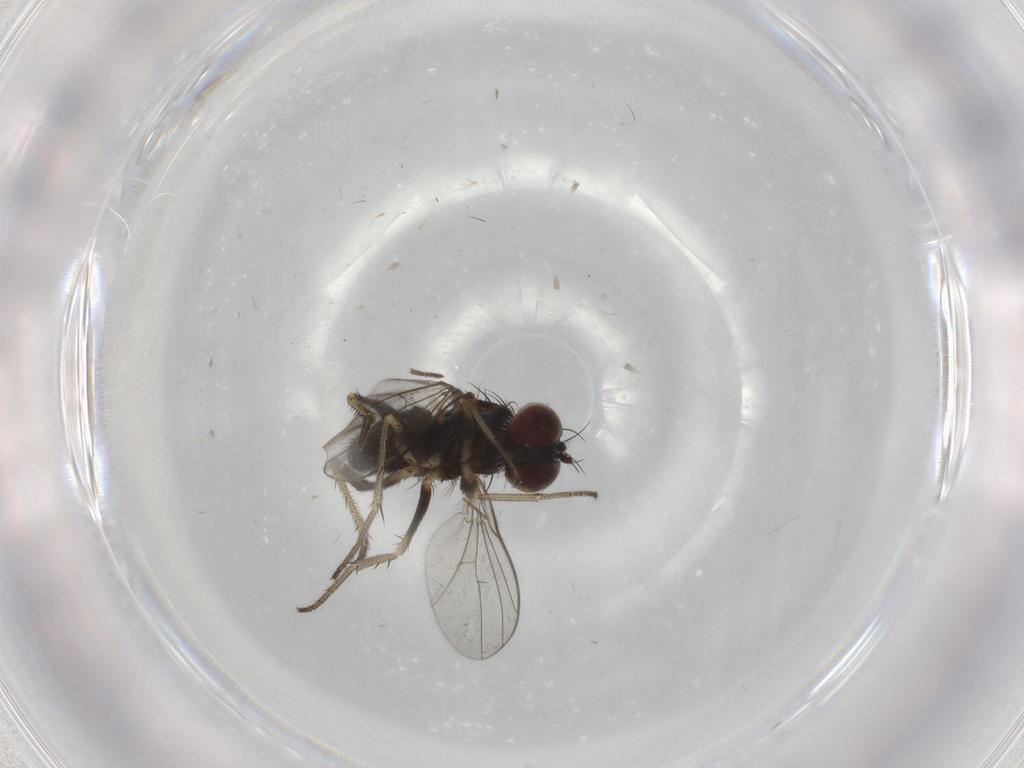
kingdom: Animalia
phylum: Arthropoda
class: Insecta
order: Diptera
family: Dolichopodidae
